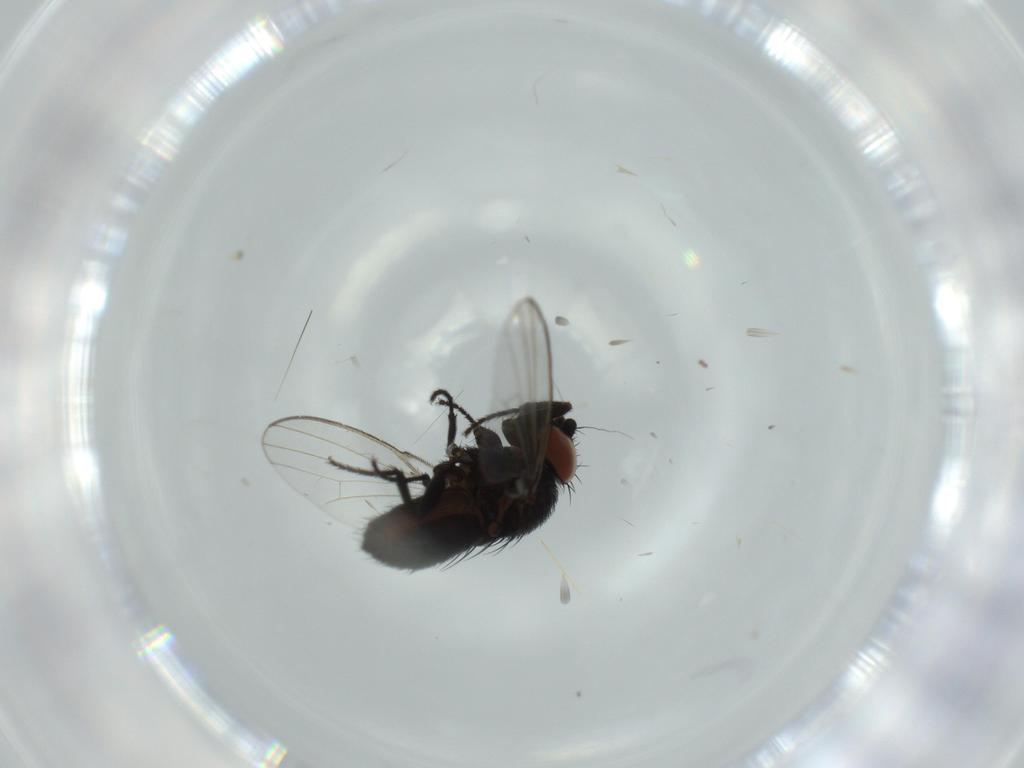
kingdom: Animalia
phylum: Arthropoda
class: Insecta
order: Diptera
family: Milichiidae
